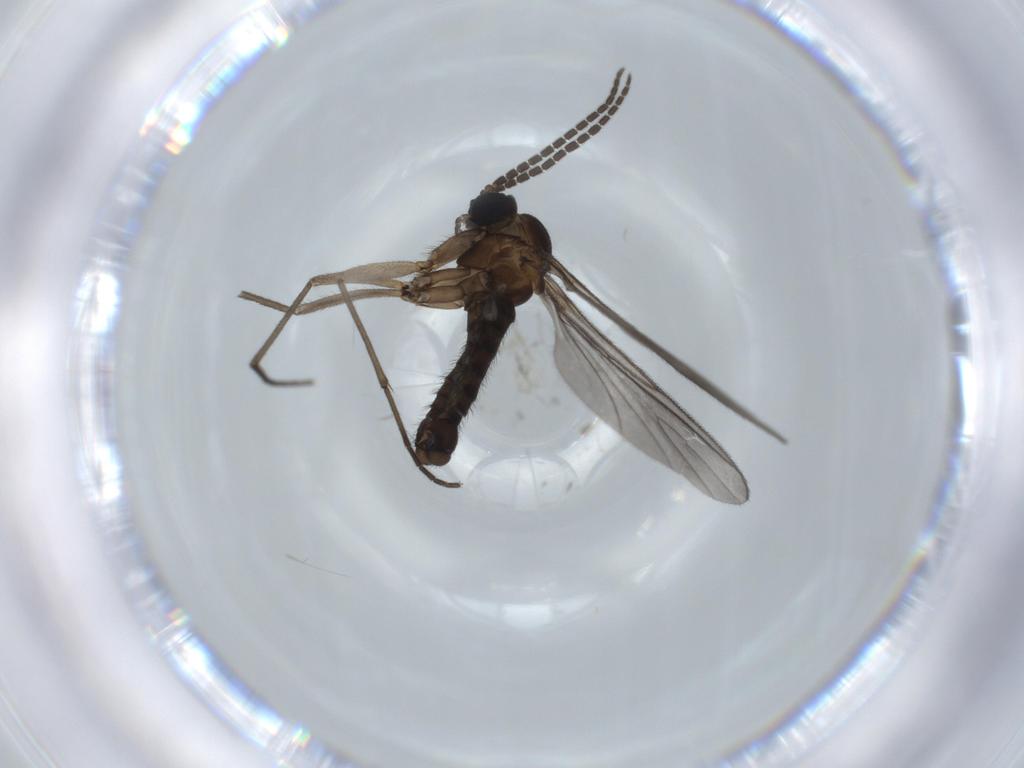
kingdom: Animalia
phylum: Arthropoda
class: Insecta
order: Diptera
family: Sciaridae
